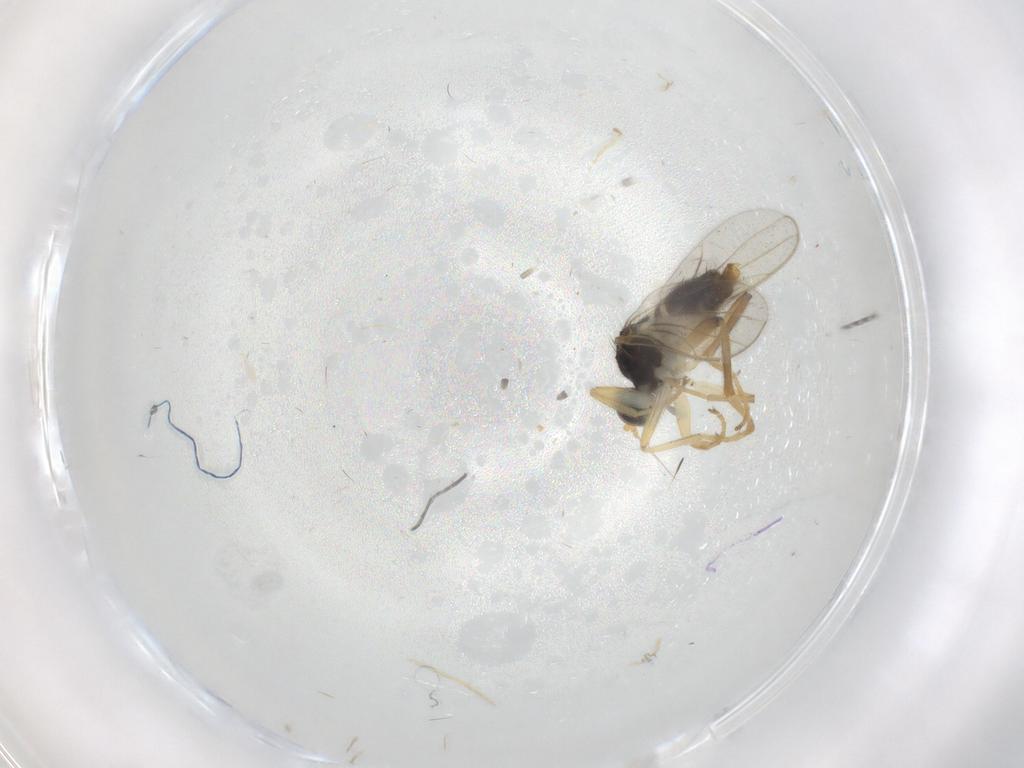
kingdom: Animalia
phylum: Arthropoda
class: Insecta
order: Diptera
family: Hybotidae
